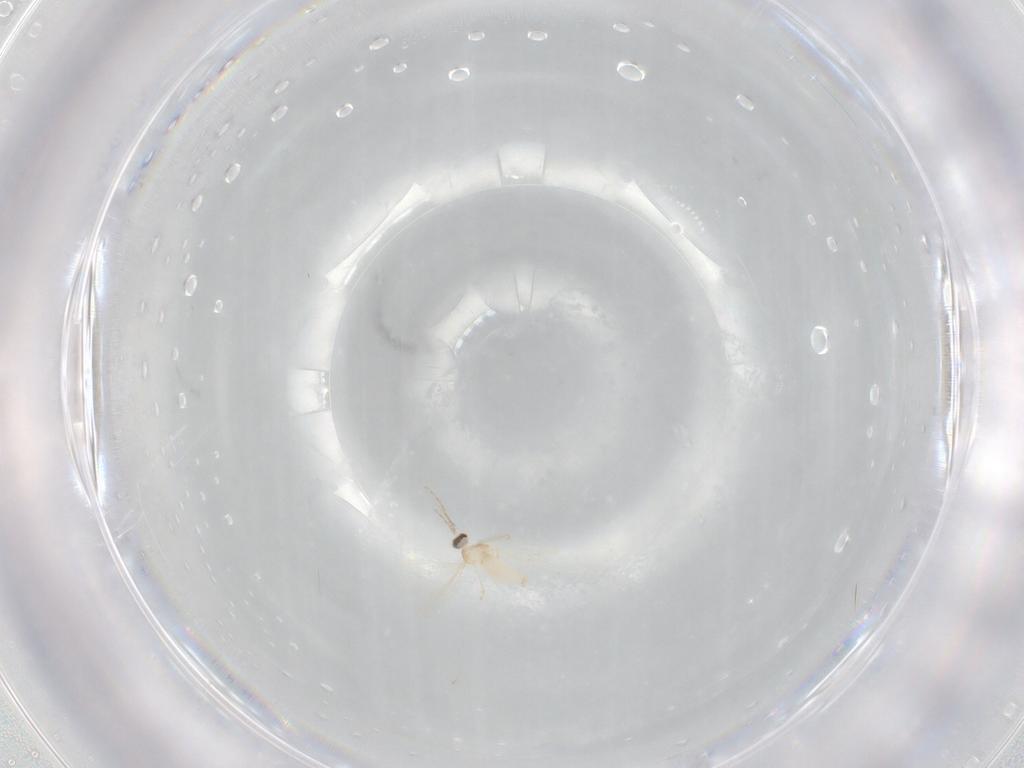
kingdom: Animalia
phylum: Arthropoda
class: Insecta
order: Diptera
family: Cecidomyiidae
